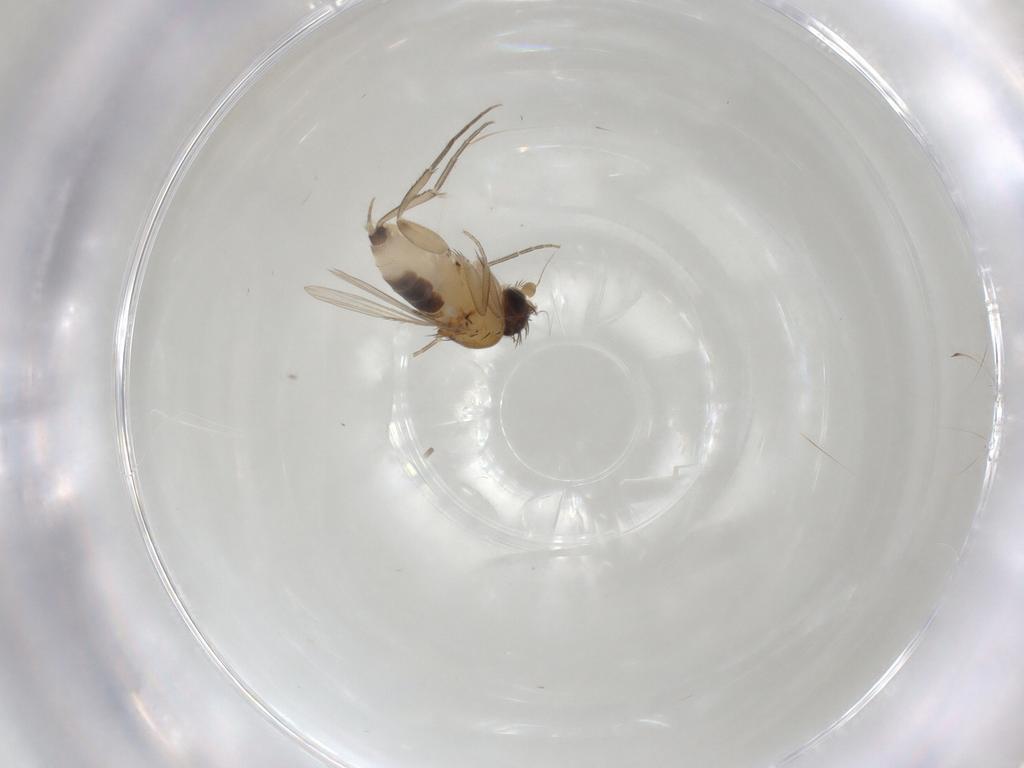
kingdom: Animalia
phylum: Arthropoda
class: Insecta
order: Diptera
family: Phoridae
